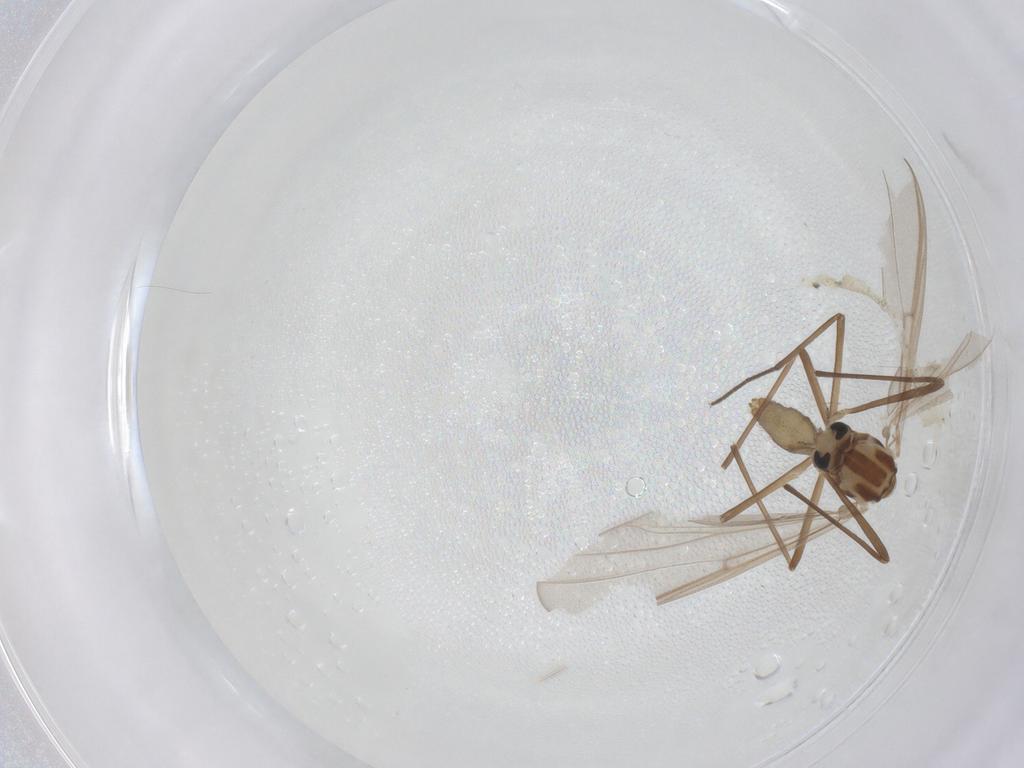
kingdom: Animalia
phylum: Arthropoda
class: Insecta
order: Diptera
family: Chironomidae
